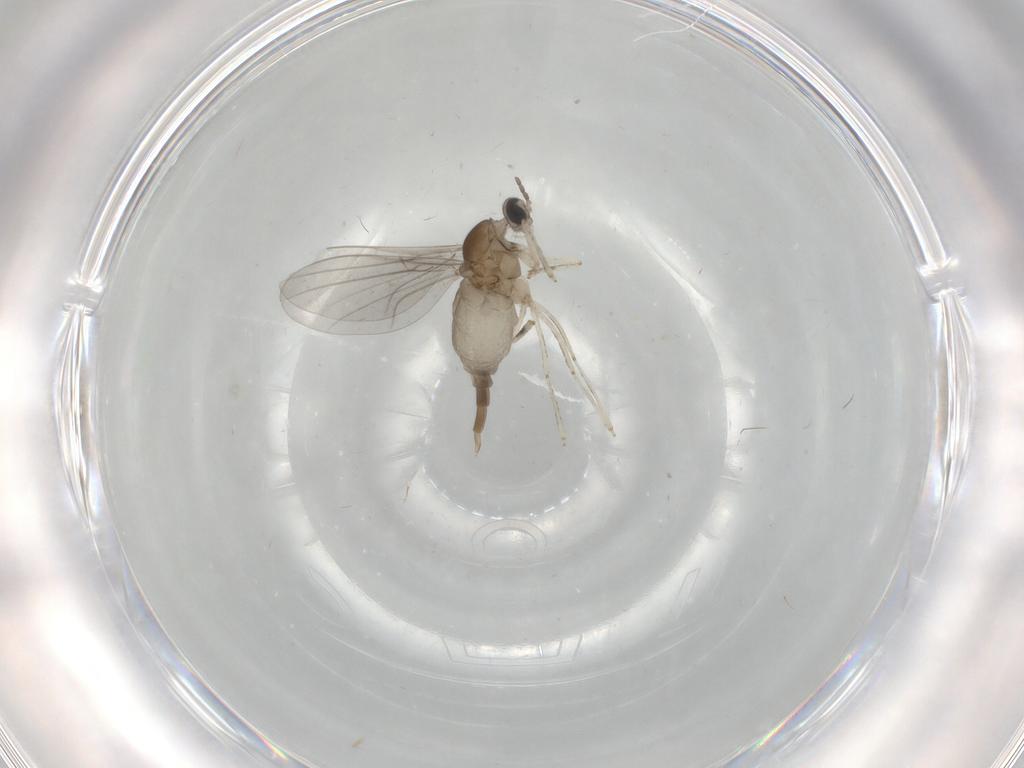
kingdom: Animalia
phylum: Arthropoda
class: Insecta
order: Diptera
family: Cecidomyiidae
